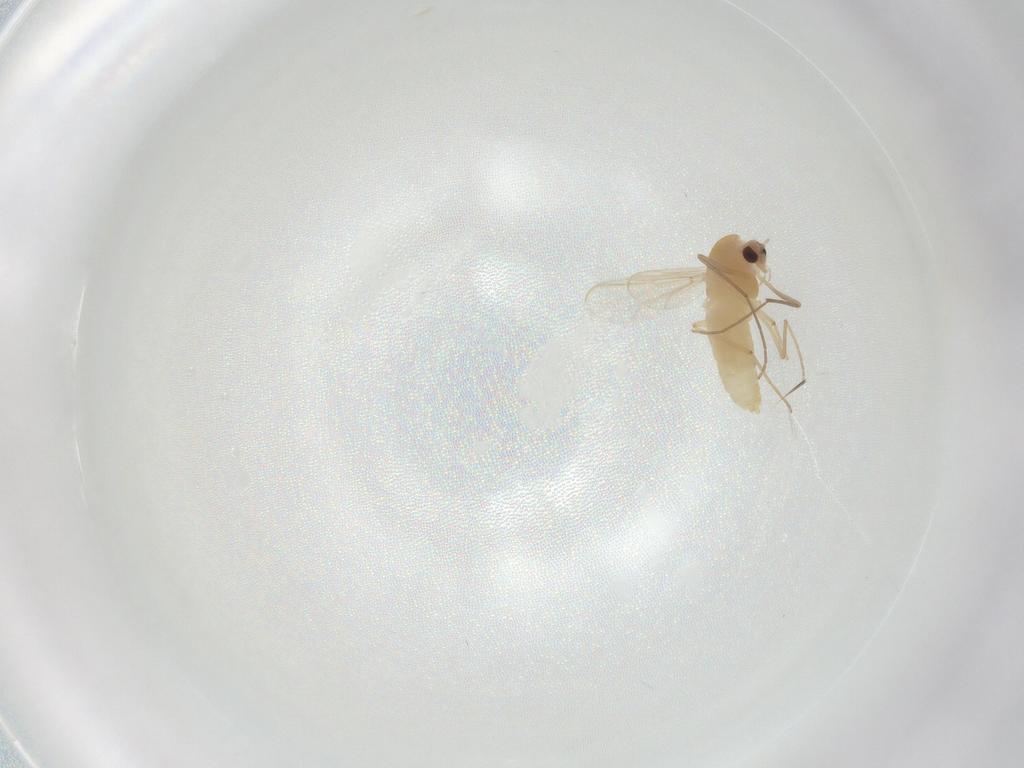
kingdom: Animalia
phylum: Arthropoda
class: Insecta
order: Diptera
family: Chironomidae
